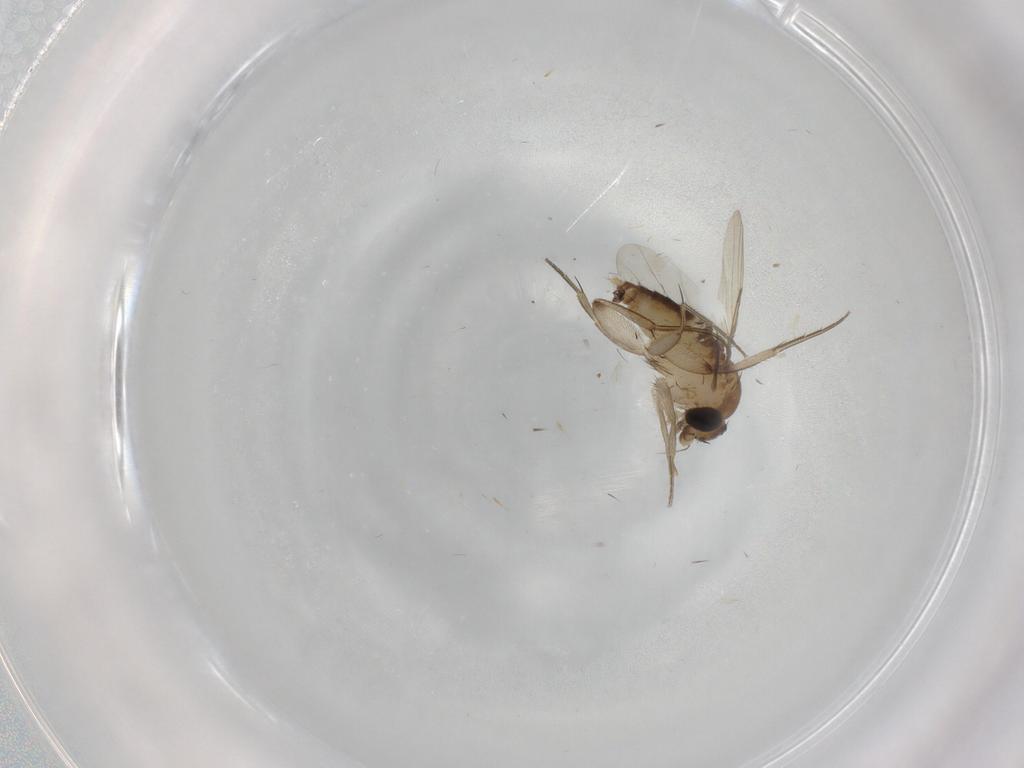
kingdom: Animalia
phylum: Arthropoda
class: Insecta
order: Diptera
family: Phoridae
